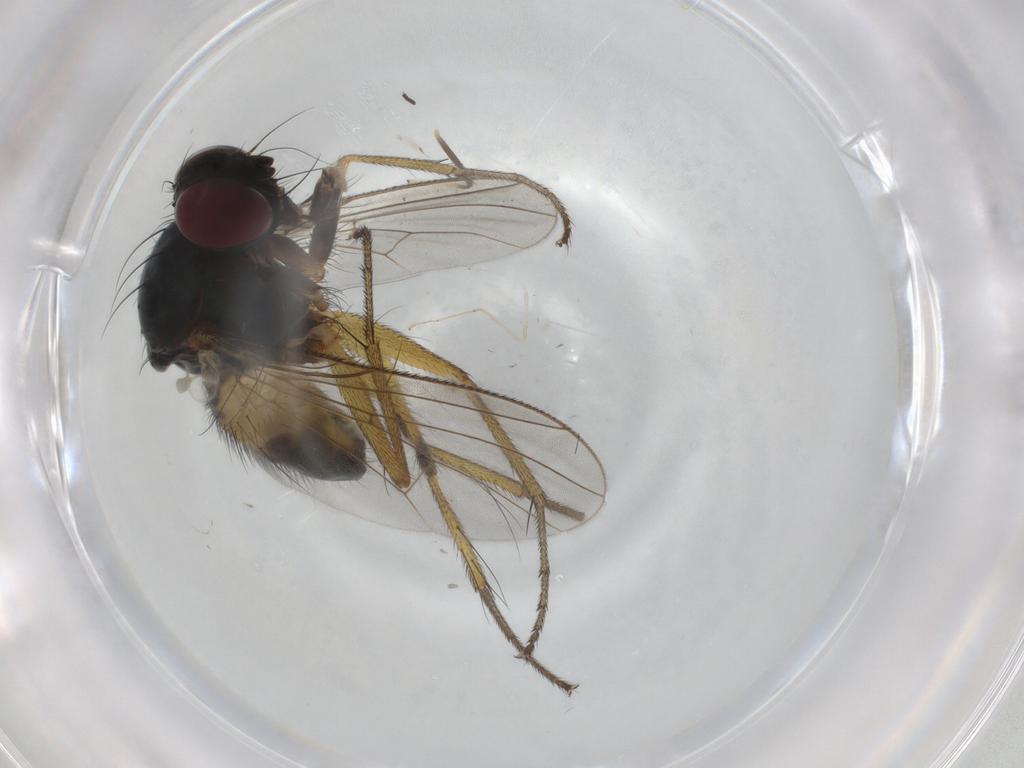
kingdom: Animalia
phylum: Arthropoda
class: Insecta
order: Diptera
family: Muscidae
